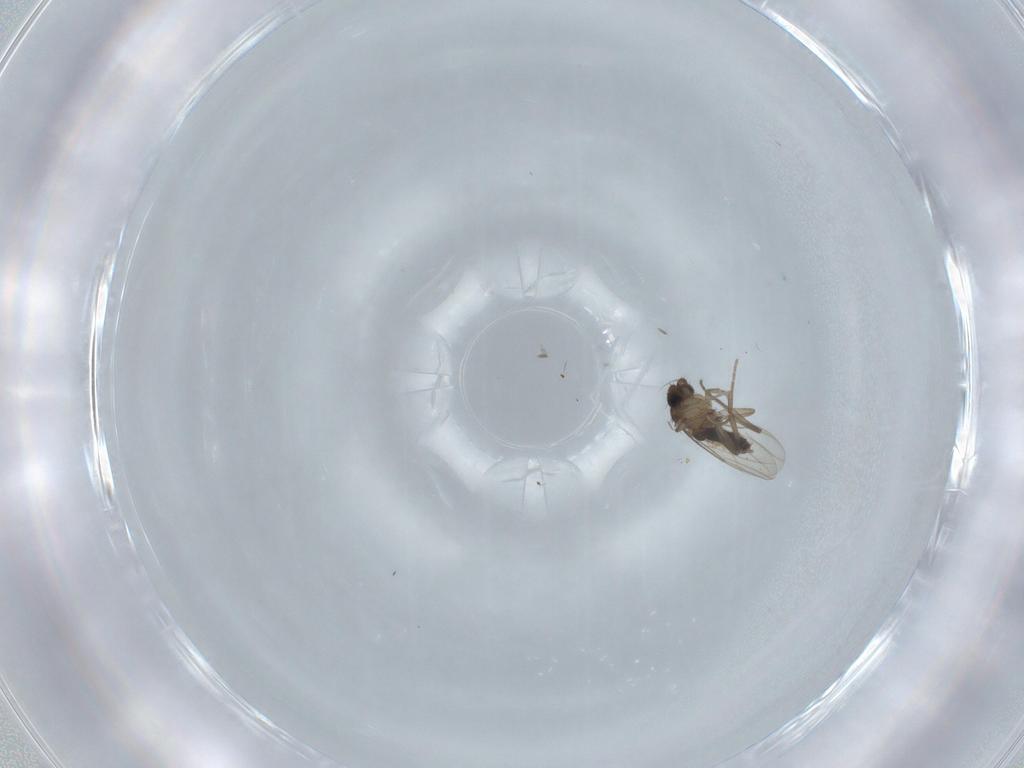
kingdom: Animalia
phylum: Arthropoda
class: Insecta
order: Diptera
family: Phoridae
